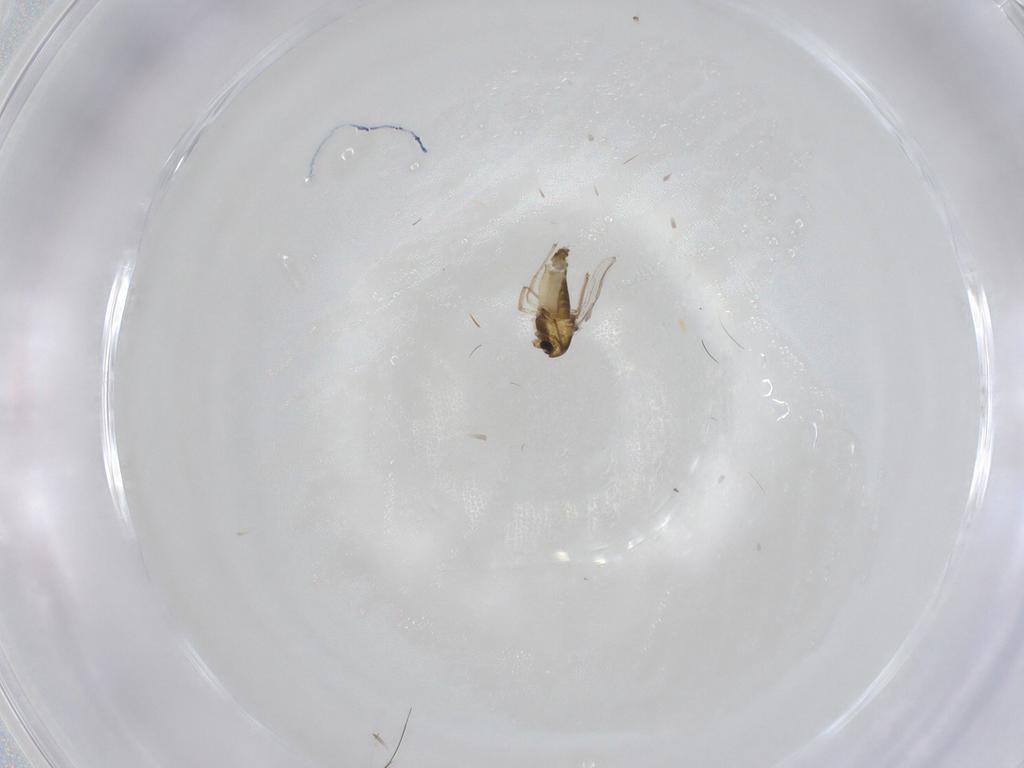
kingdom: Animalia
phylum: Arthropoda
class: Insecta
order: Diptera
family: Chironomidae
